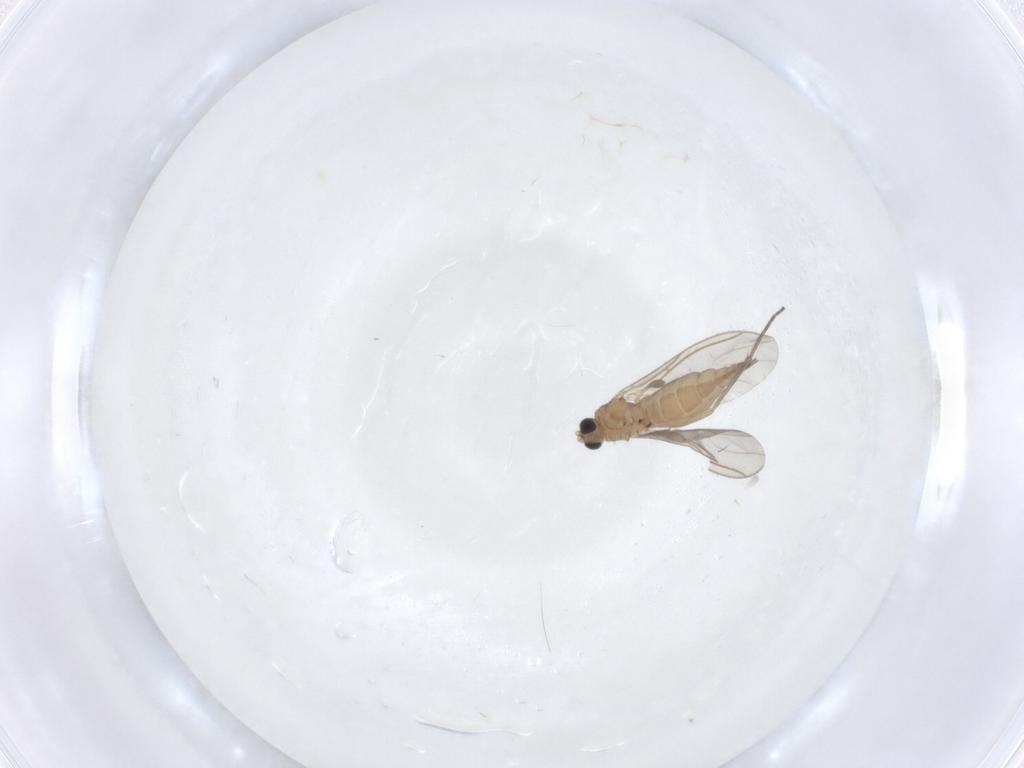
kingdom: Animalia
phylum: Arthropoda
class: Insecta
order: Diptera
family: Sciaridae
